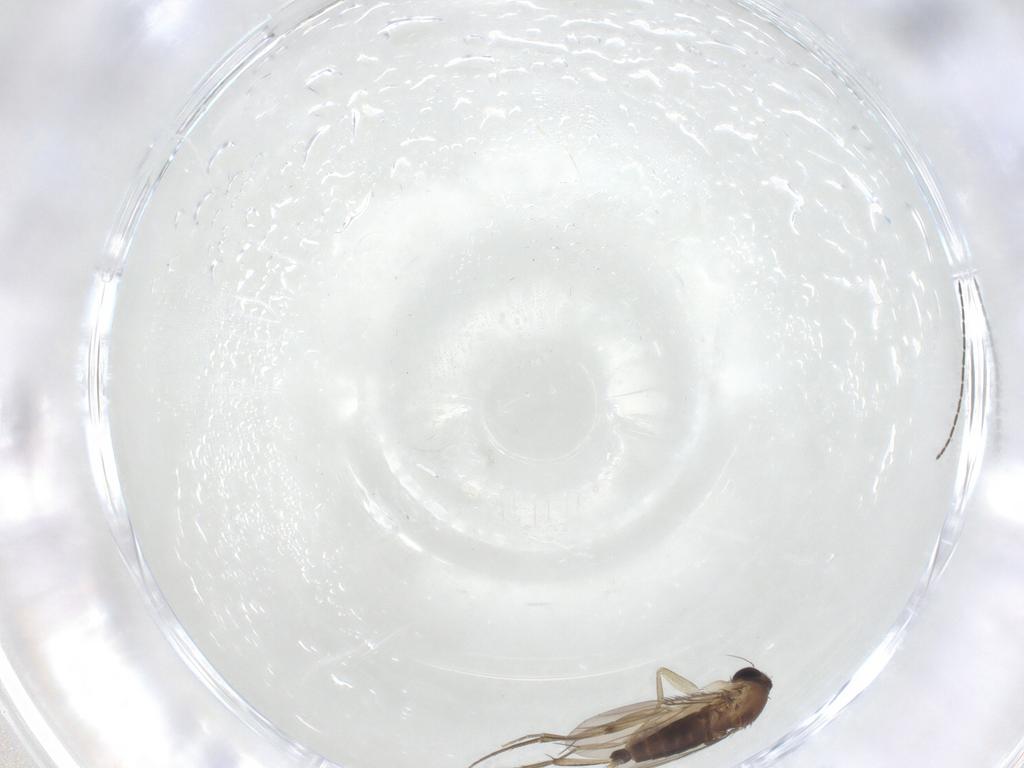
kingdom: Animalia
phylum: Arthropoda
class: Insecta
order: Diptera
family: Phoridae
